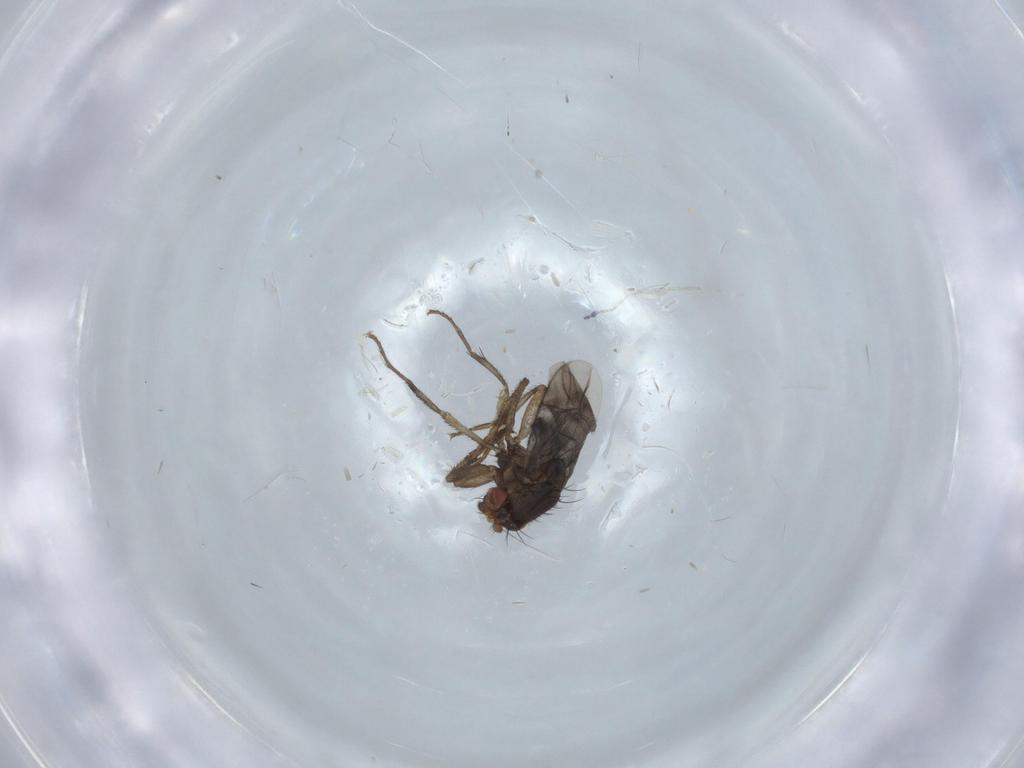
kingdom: Animalia
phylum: Arthropoda
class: Insecta
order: Diptera
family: Sphaeroceridae
